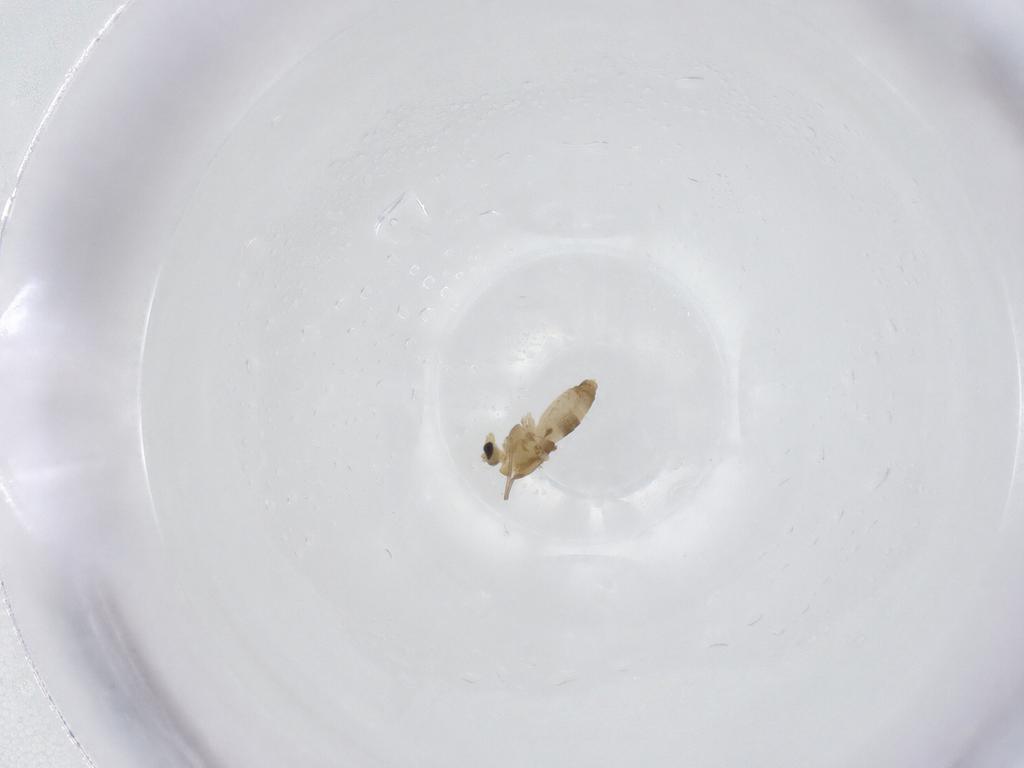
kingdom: Animalia
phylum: Arthropoda
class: Insecta
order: Diptera
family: Chironomidae
